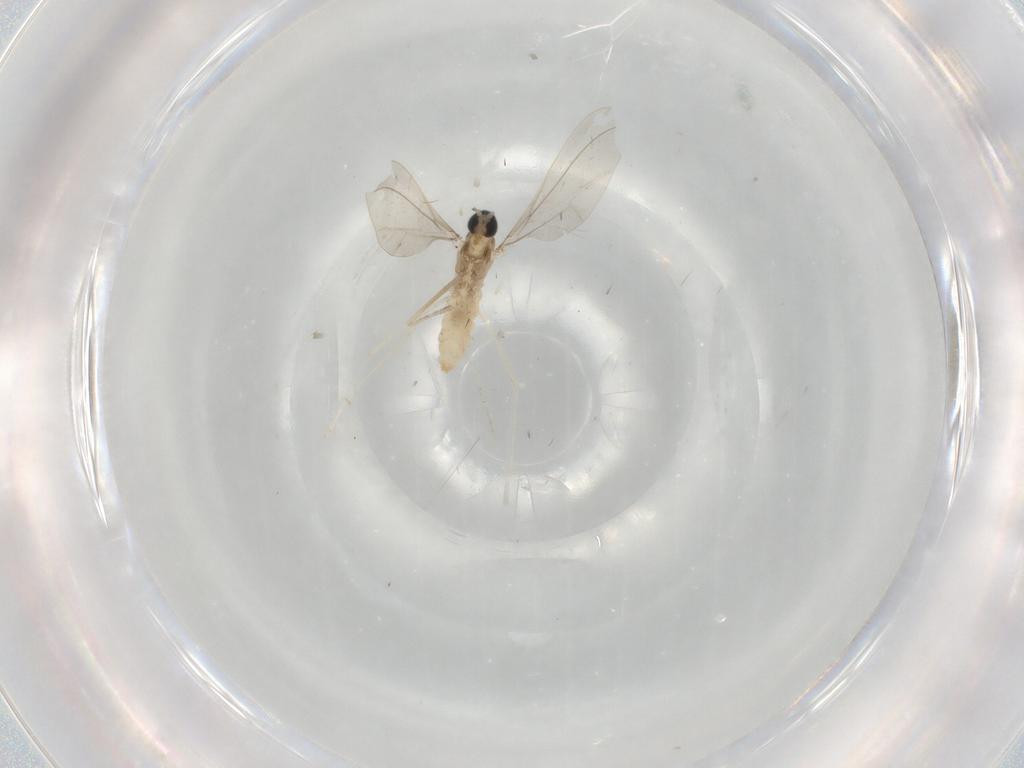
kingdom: Animalia
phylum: Arthropoda
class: Insecta
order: Diptera
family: Cecidomyiidae
